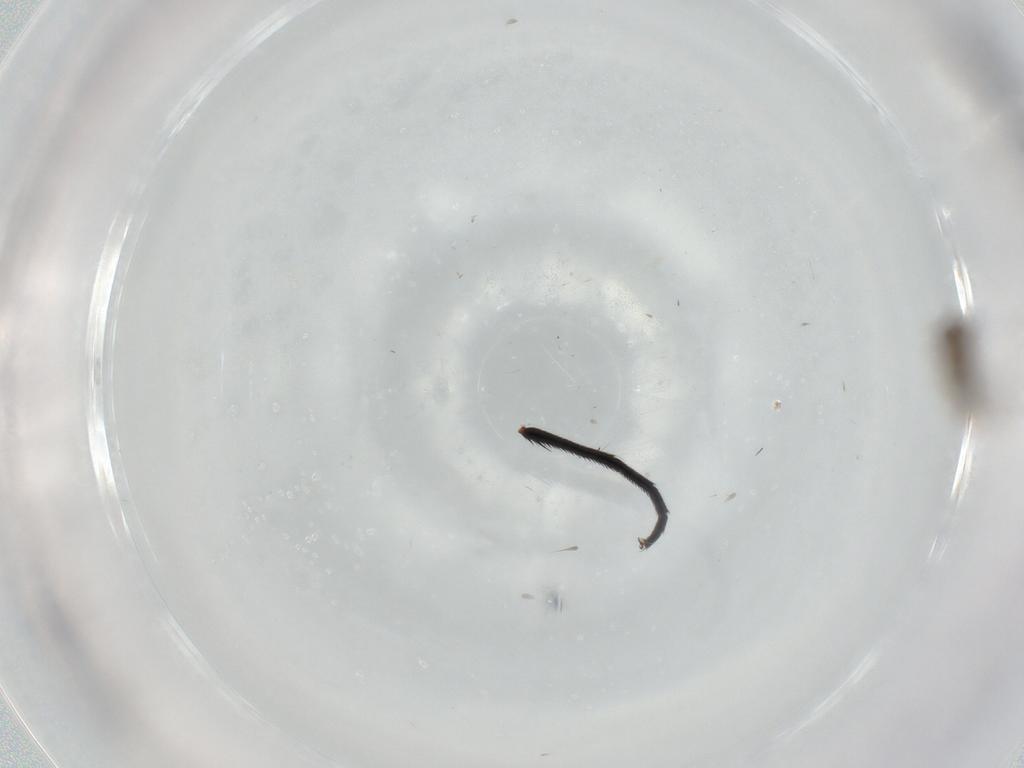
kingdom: Animalia
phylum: Arthropoda
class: Insecta
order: Diptera
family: Cecidomyiidae
